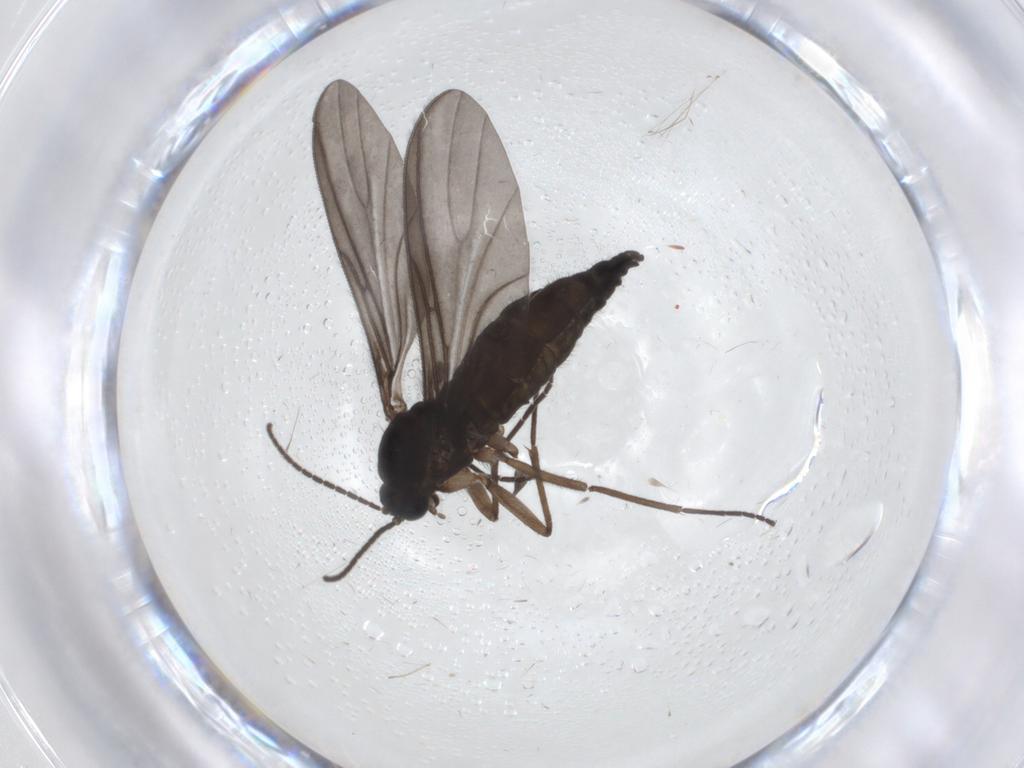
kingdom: Animalia
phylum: Arthropoda
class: Insecta
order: Diptera
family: Sciaridae
